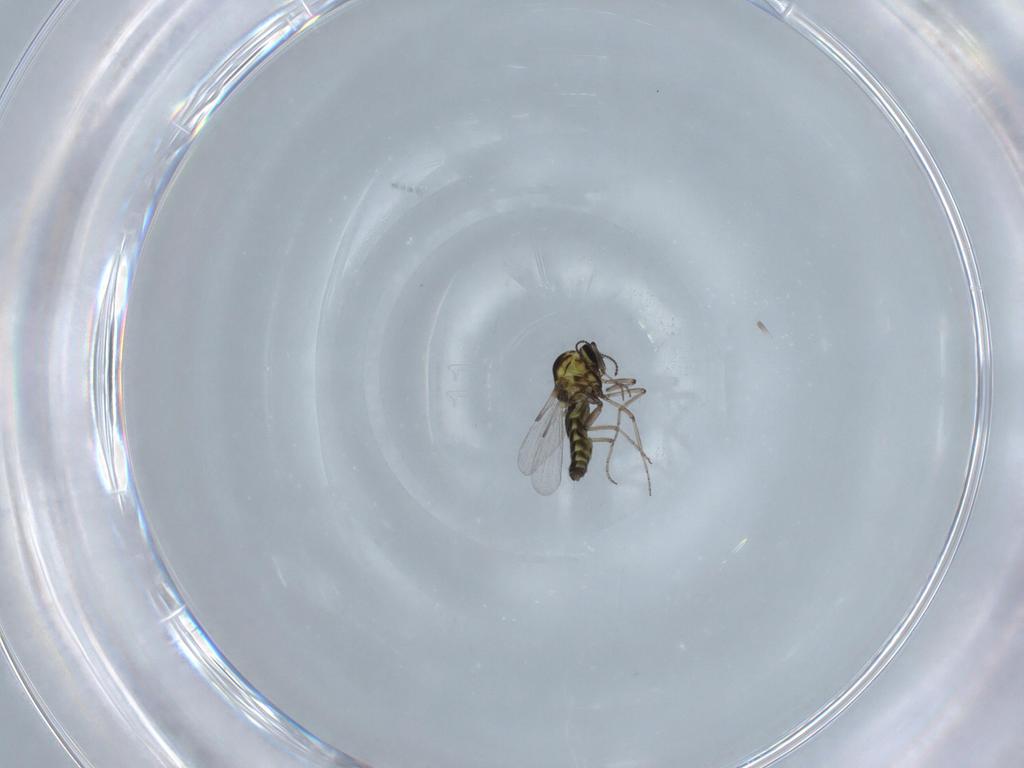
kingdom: Animalia
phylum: Arthropoda
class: Insecta
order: Diptera
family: Ceratopogonidae
